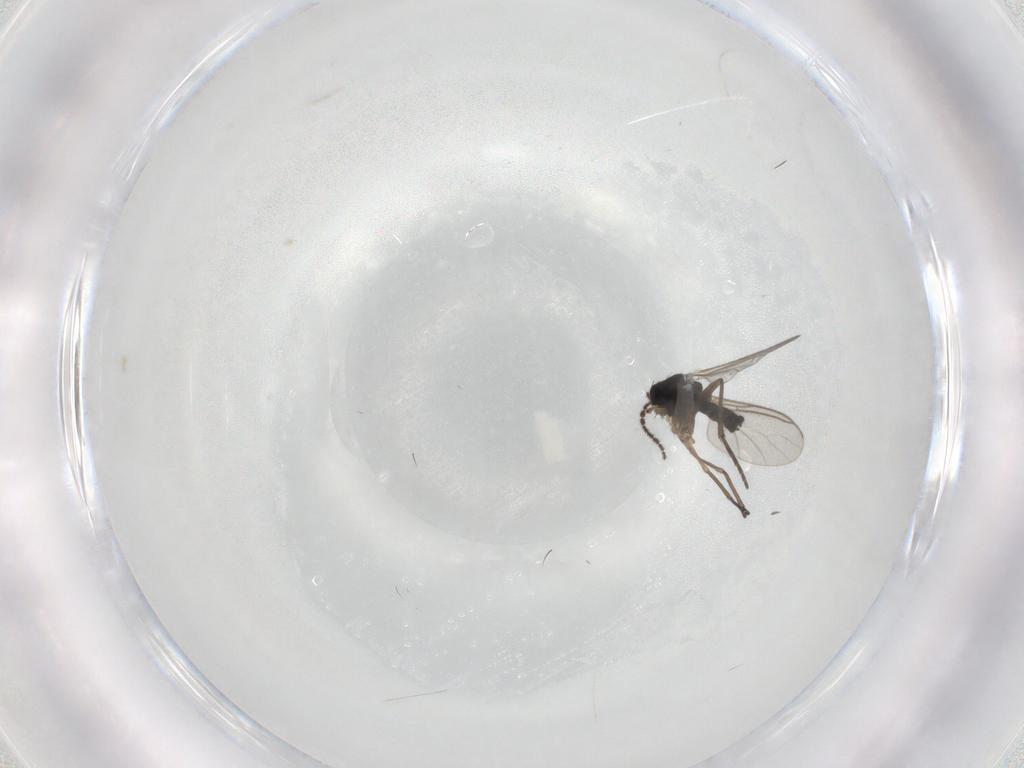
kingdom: Animalia
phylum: Arthropoda
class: Insecta
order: Diptera
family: Sciaridae
